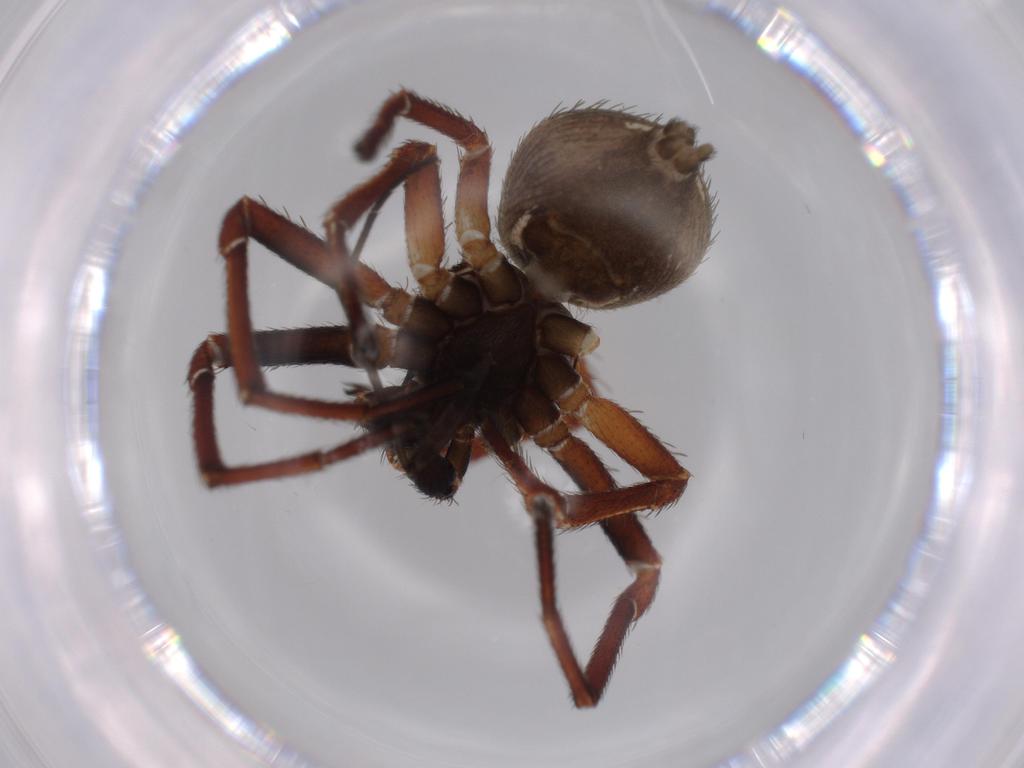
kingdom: Animalia
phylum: Arthropoda
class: Arachnida
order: Araneae
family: Thomisidae
